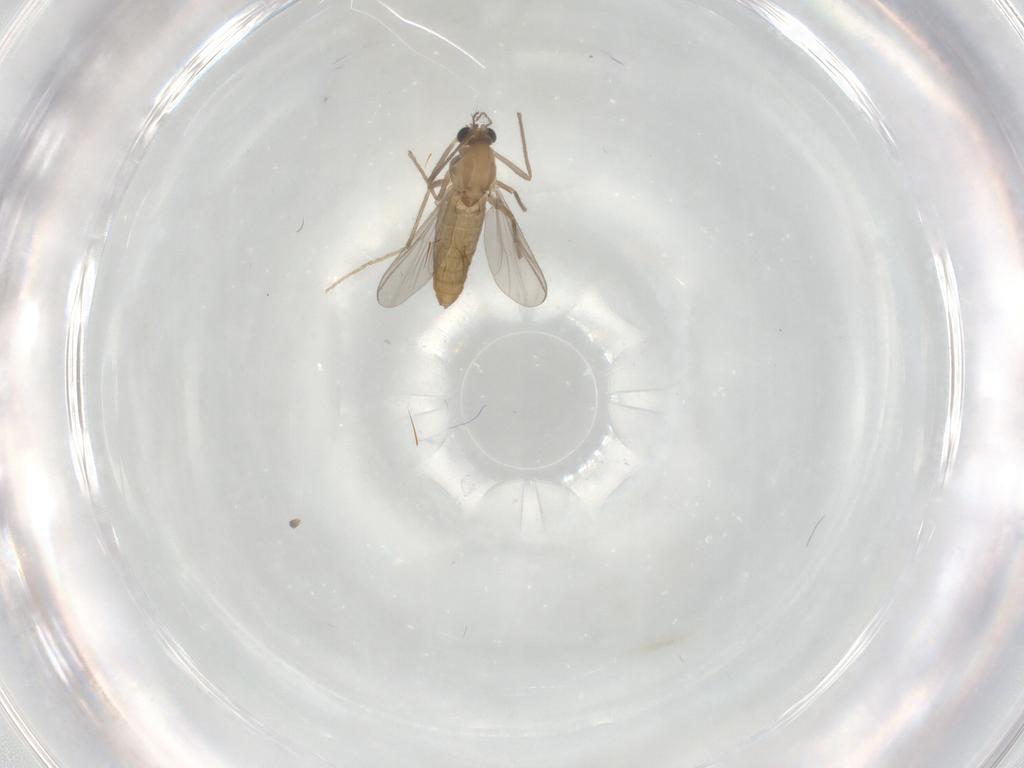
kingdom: Animalia
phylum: Arthropoda
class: Insecta
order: Diptera
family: Chironomidae
